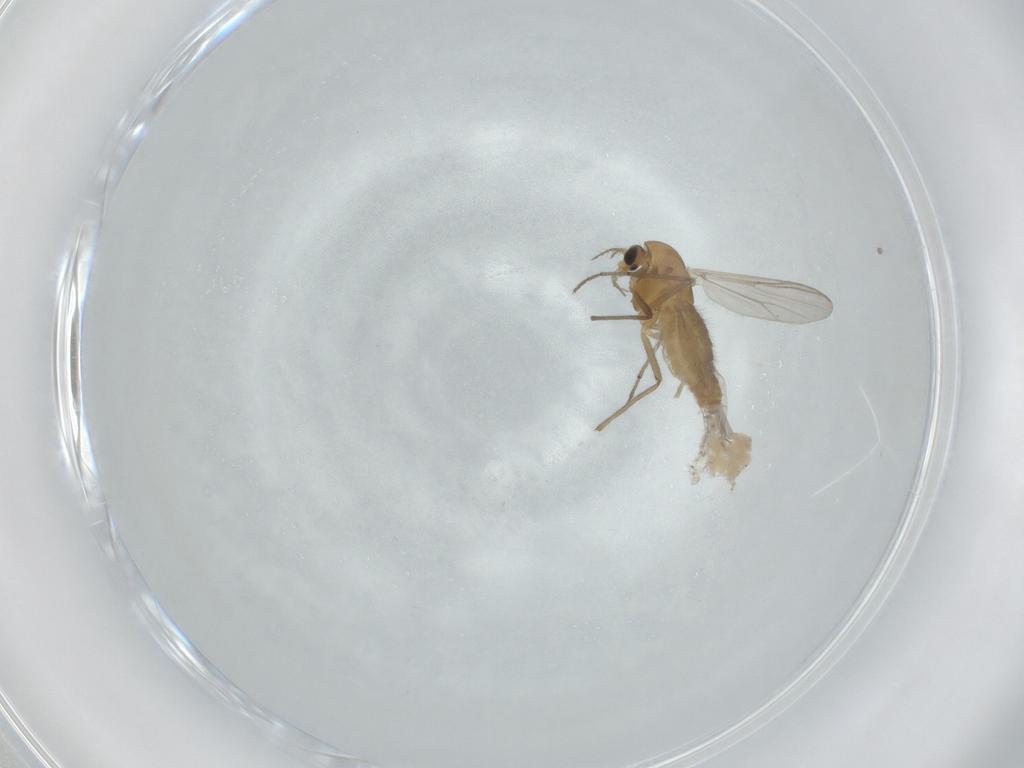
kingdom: Animalia
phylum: Arthropoda
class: Insecta
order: Diptera
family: Chironomidae
